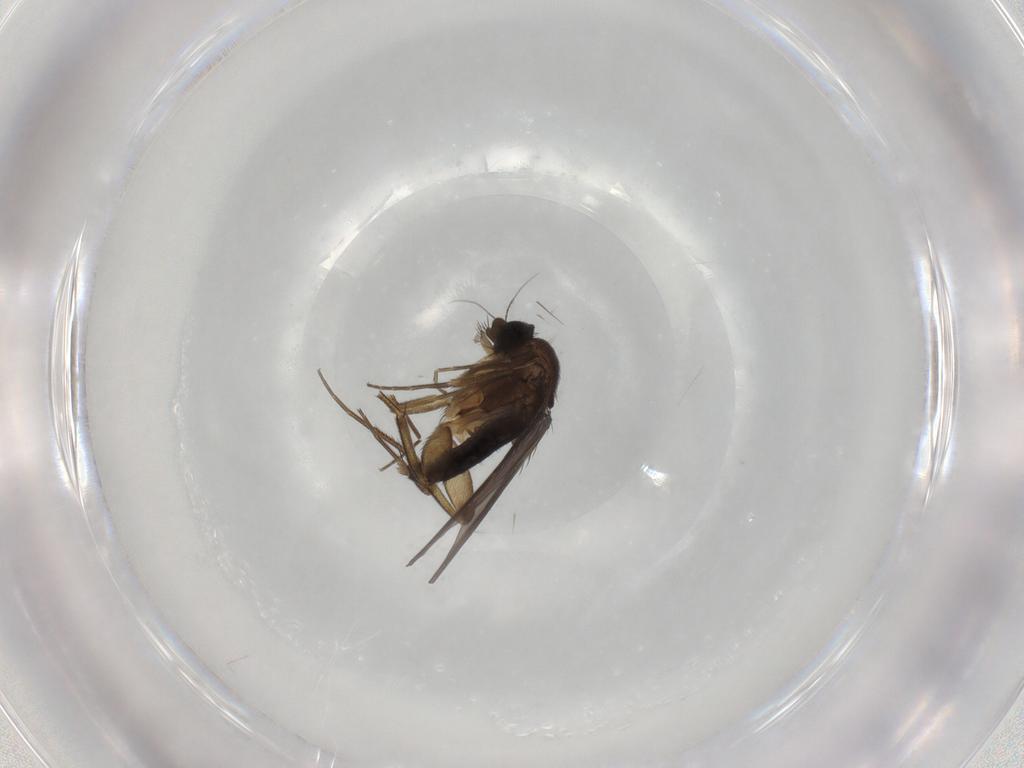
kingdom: Animalia
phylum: Arthropoda
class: Insecta
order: Diptera
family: Phoridae
